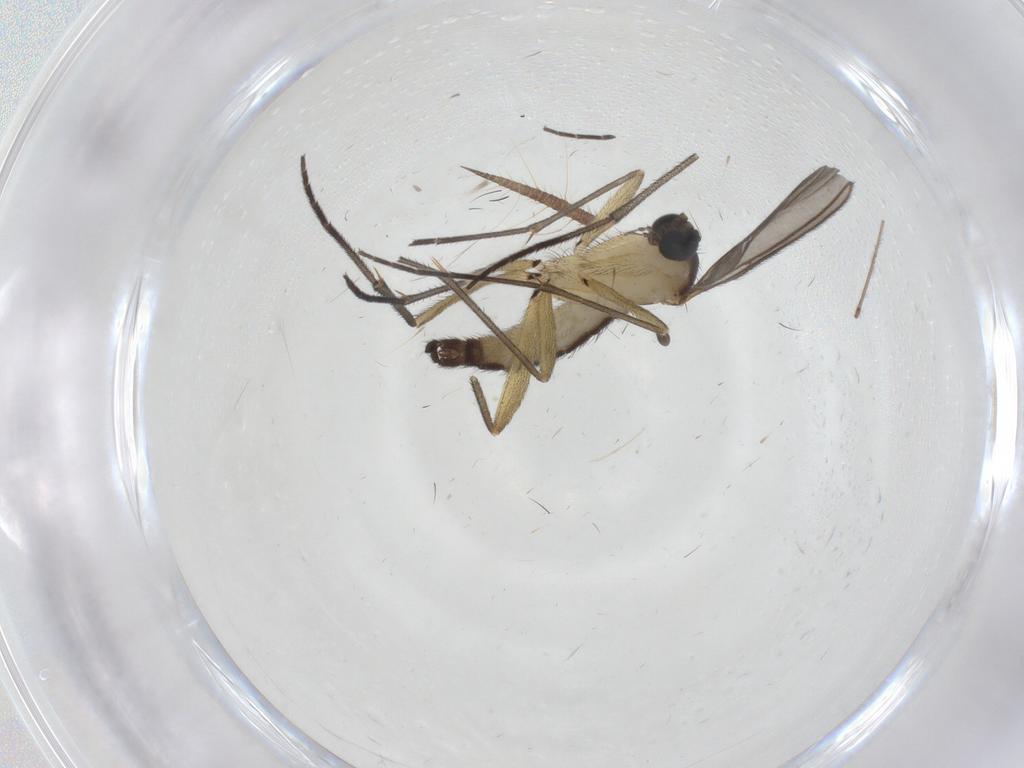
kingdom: Animalia
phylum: Arthropoda
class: Insecta
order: Diptera
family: Sciaridae
